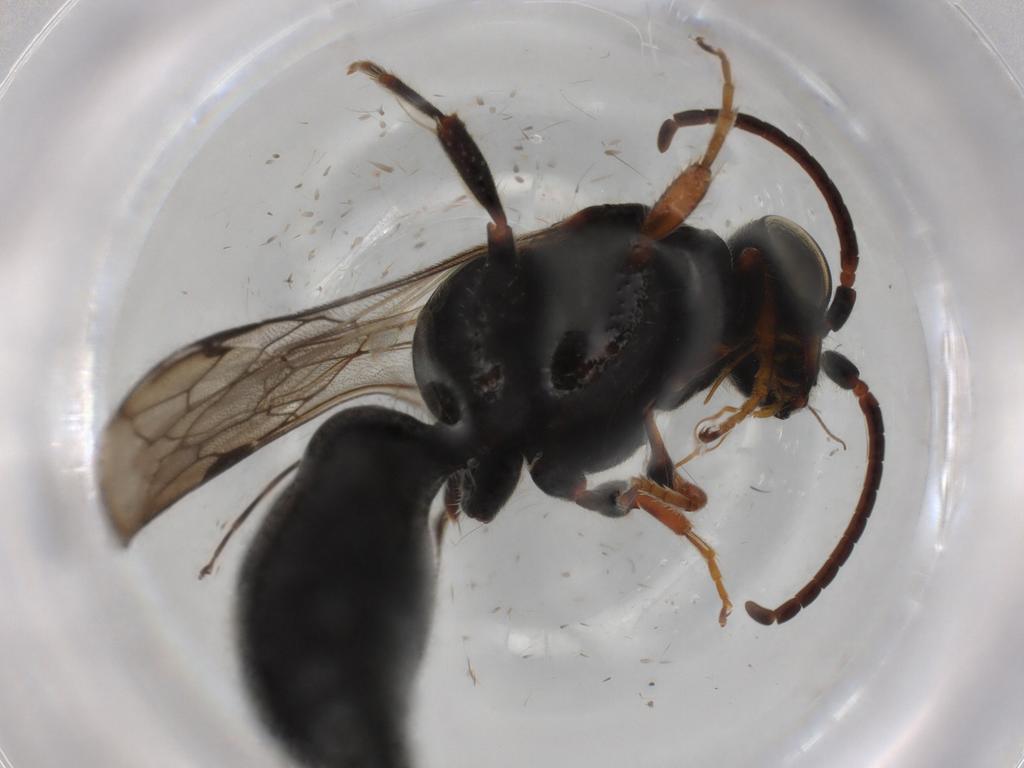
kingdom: Animalia
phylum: Arthropoda
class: Insecta
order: Hymenoptera
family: Tiphiidae
